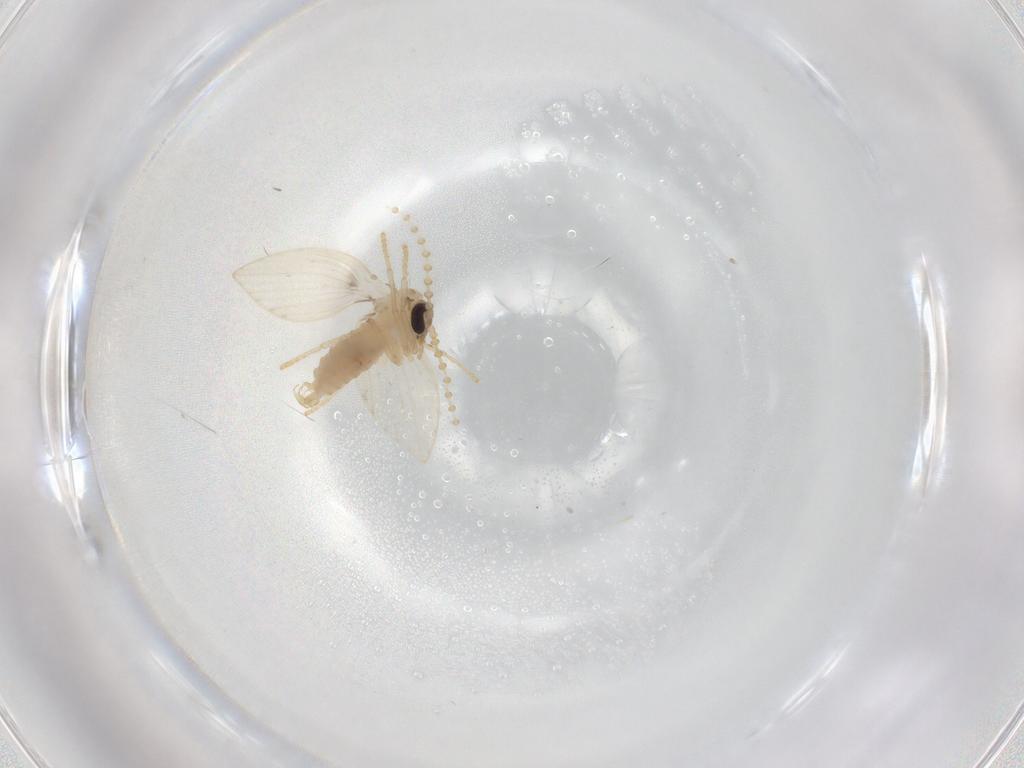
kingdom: Animalia
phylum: Arthropoda
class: Insecta
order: Diptera
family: Psychodidae
